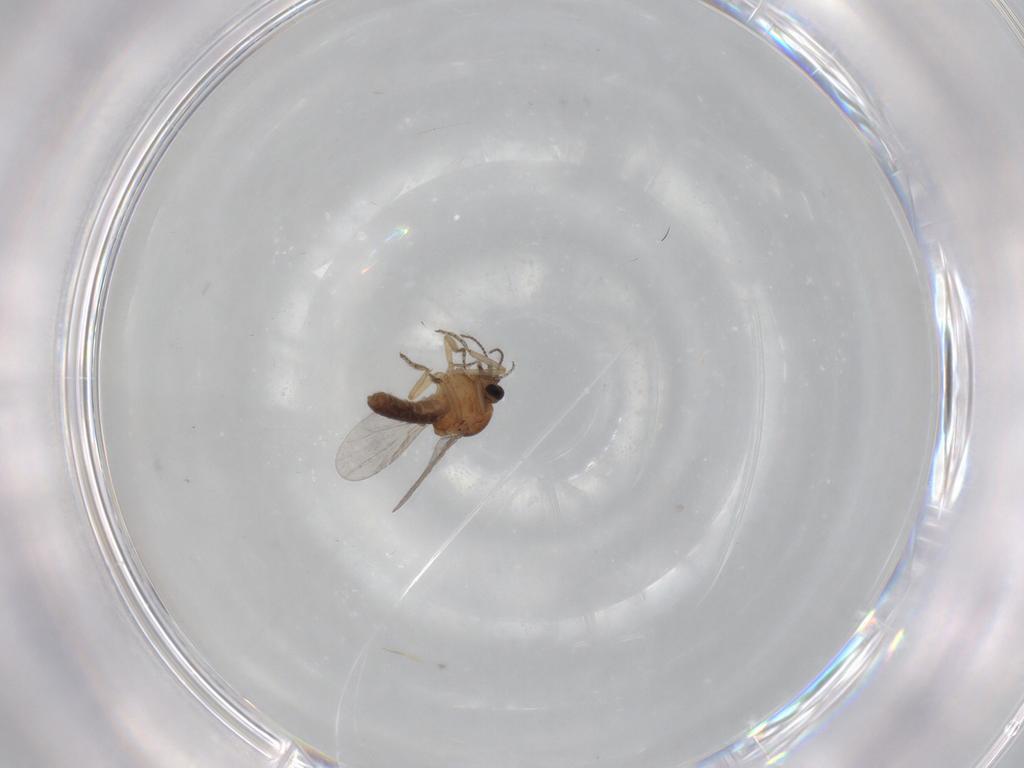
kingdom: Animalia
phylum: Arthropoda
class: Insecta
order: Diptera
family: Ceratopogonidae
